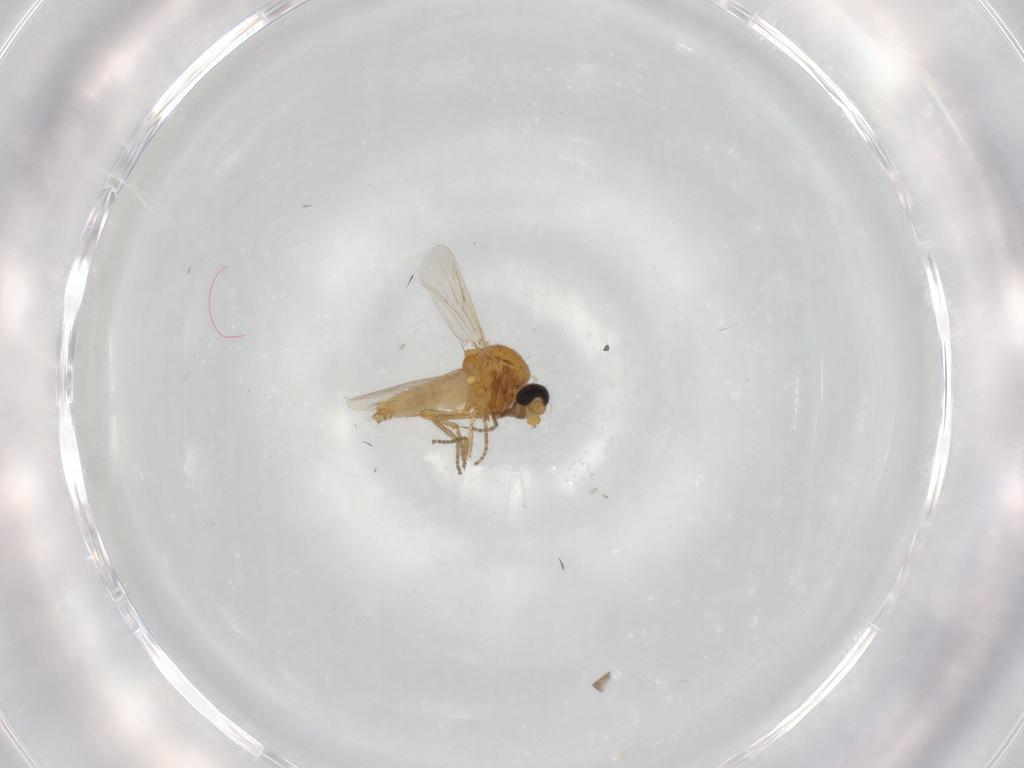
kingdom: Animalia
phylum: Arthropoda
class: Insecta
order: Diptera
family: Ceratopogonidae
